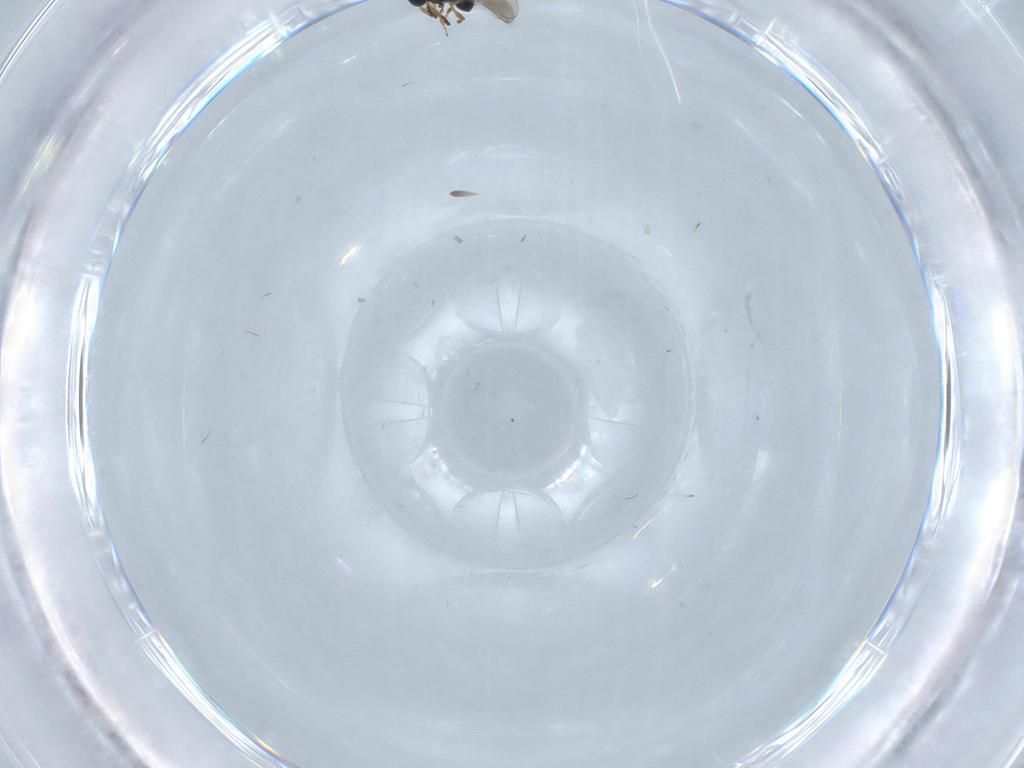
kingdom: Animalia
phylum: Arthropoda
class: Insecta
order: Hymenoptera
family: Platygastridae
